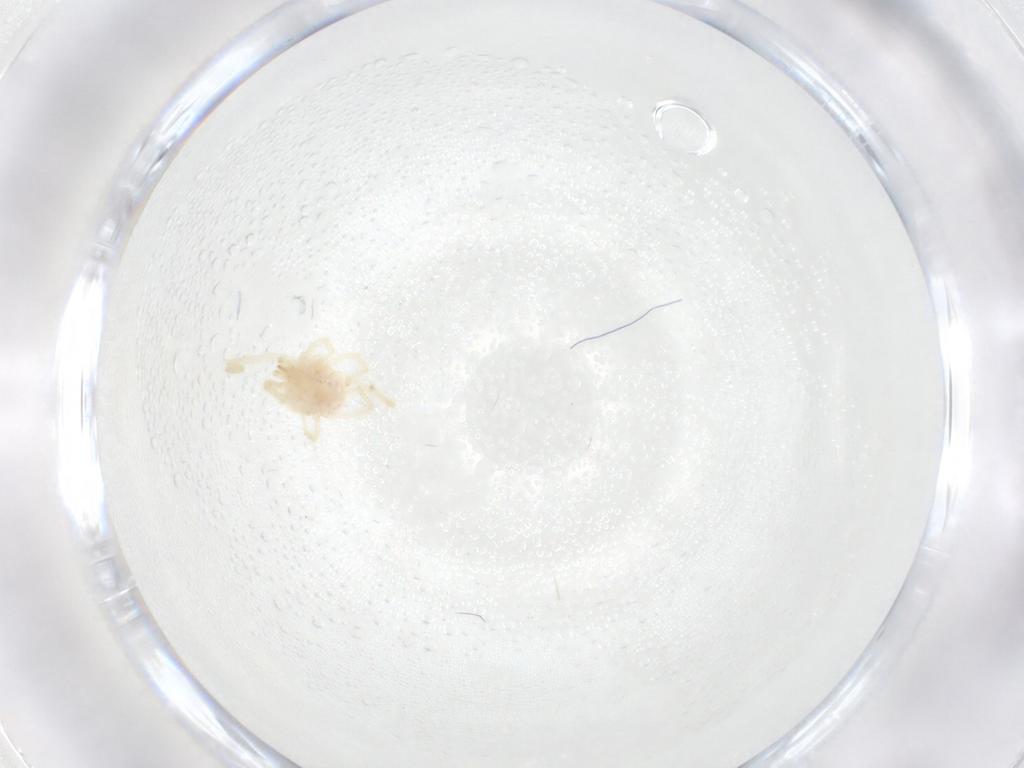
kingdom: Animalia
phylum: Arthropoda
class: Arachnida
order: Trombidiformes
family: Erythraeidae
